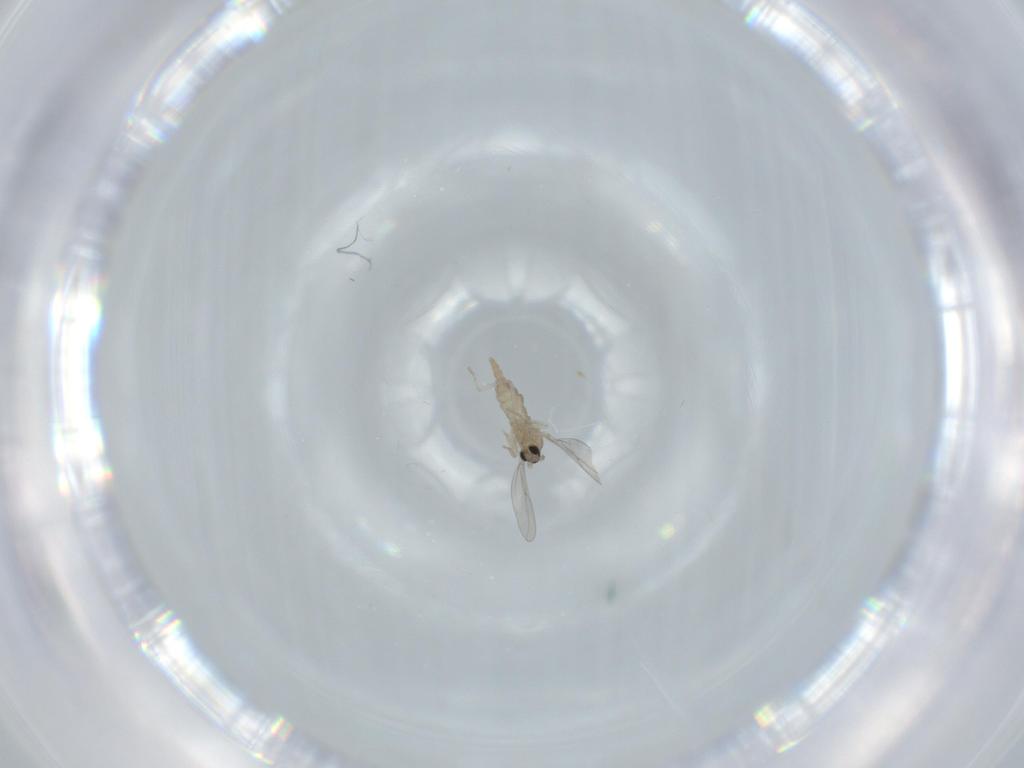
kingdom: Animalia
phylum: Arthropoda
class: Insecta
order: Diptera
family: Cecidomyiidae
